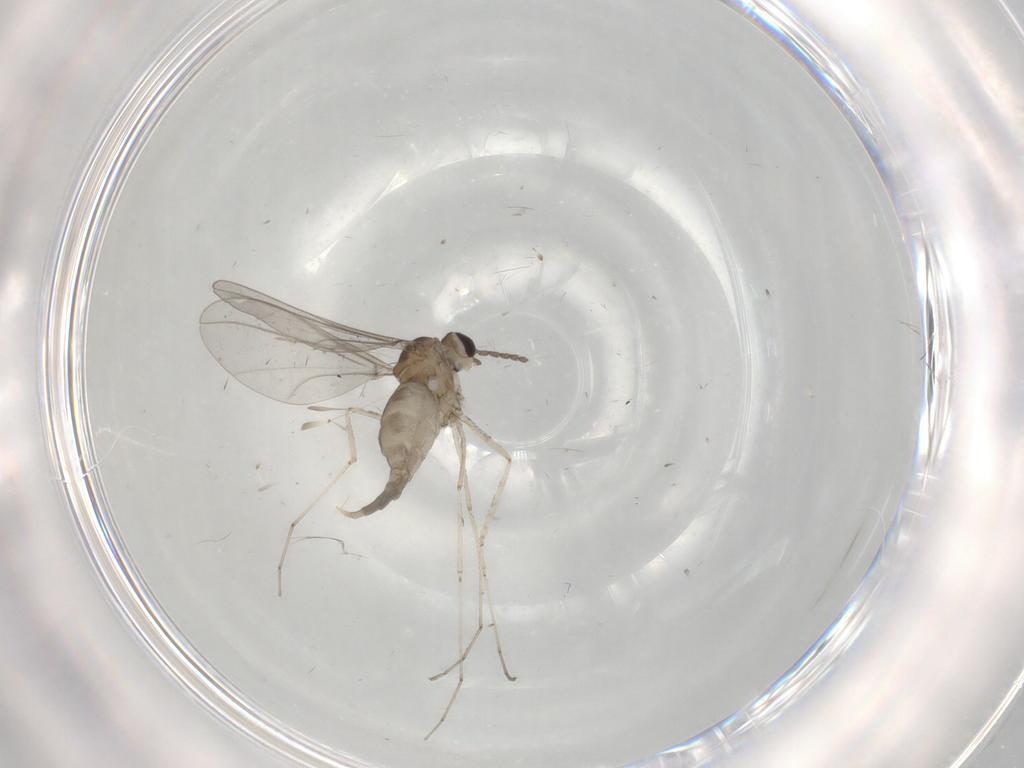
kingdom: Animalia
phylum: Arthropoda
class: Insecta
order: Diptera
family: Cecidomyiidae
